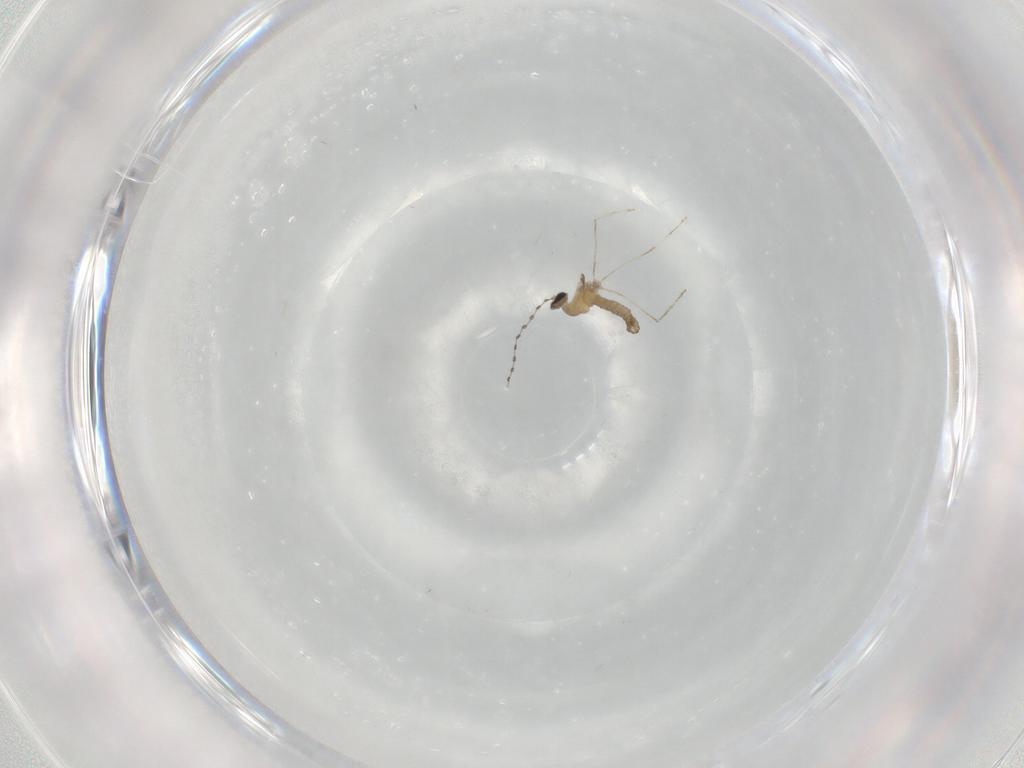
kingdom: Animalia
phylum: Arthropoda
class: Insecta
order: Diptera
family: Cecidomyiidae
